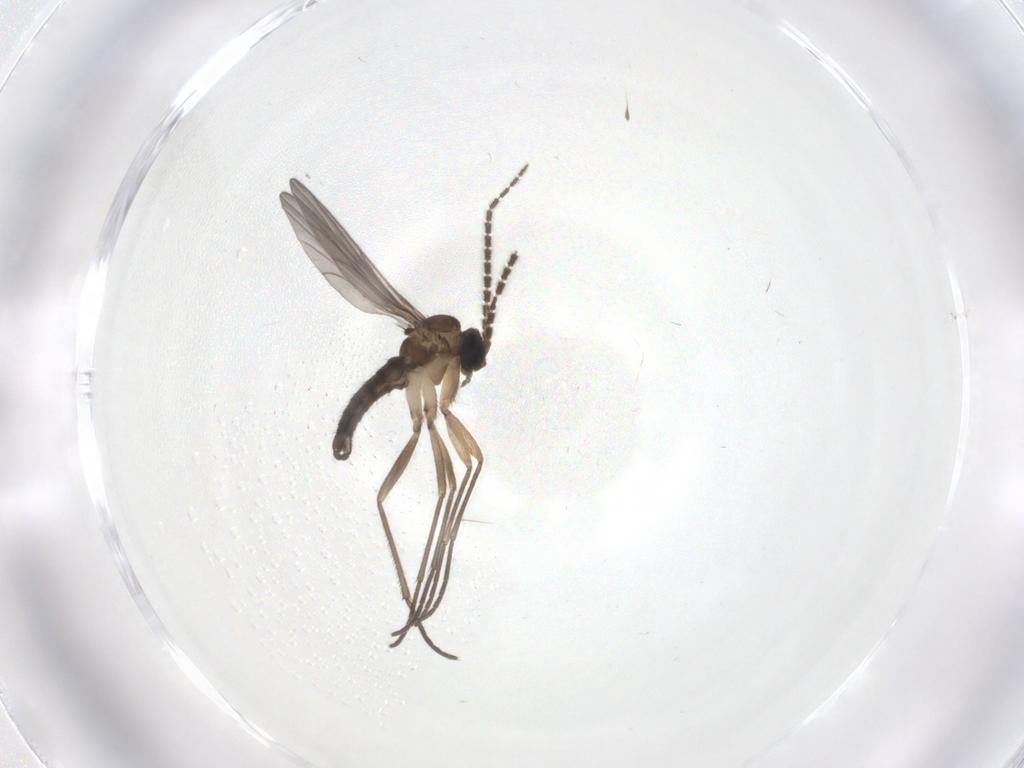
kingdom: Animalia
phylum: Arthropoda
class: Insecta
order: Diptera
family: Sciaridae
